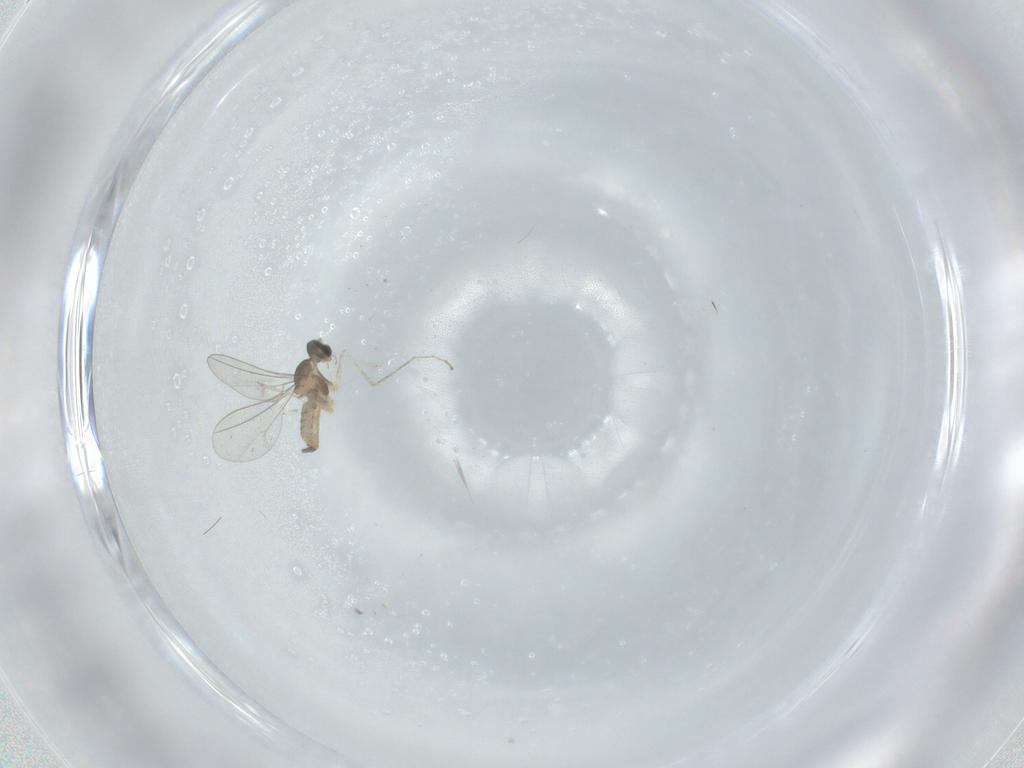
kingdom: Animalia
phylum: Arthropoda
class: Insecta
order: Diptera
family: Cecidomyiidae
